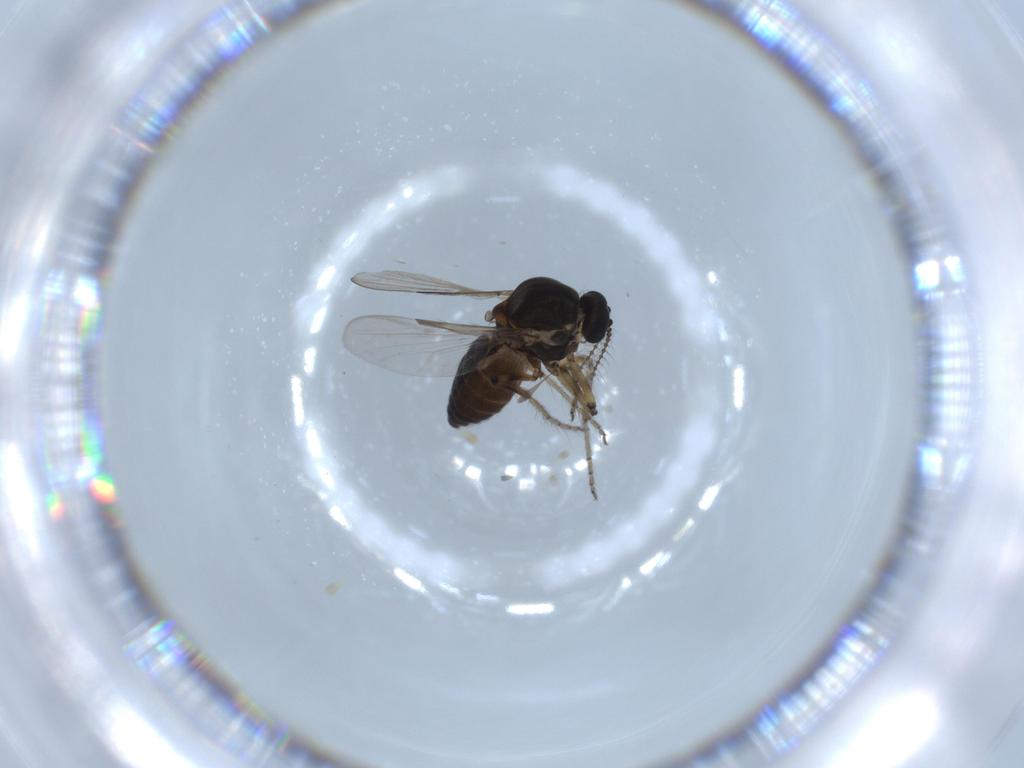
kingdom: Animalia
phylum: Arthropoda
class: Insecta
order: Diptera
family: Ceratopogonidae
